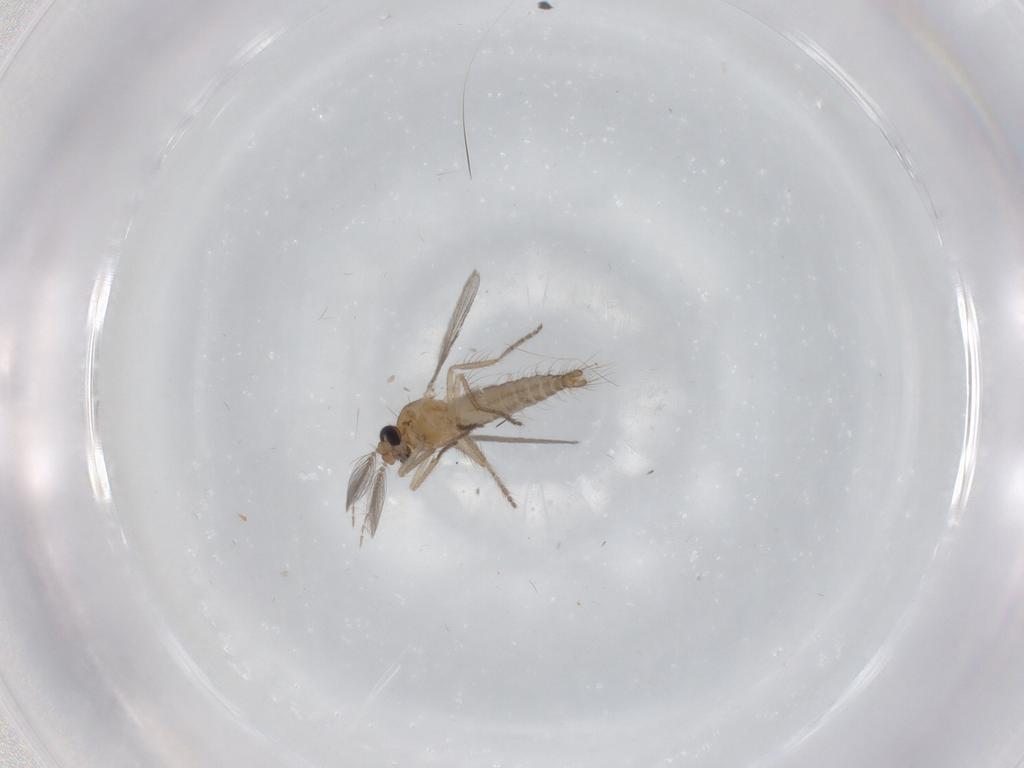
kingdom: Animalia
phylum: Arthropoda
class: Insecta
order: Diptera
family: Ceratopogonidae
